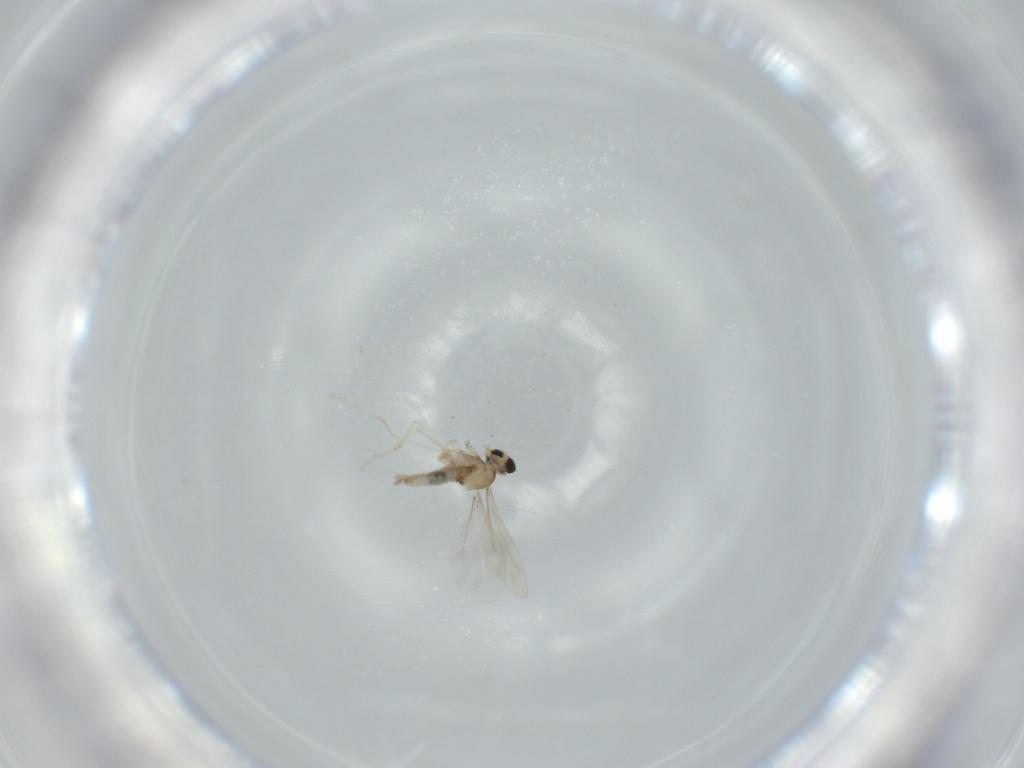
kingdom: Animalia
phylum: Arthropoda
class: Insecta
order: Diptera
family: Cecidomyiidae
